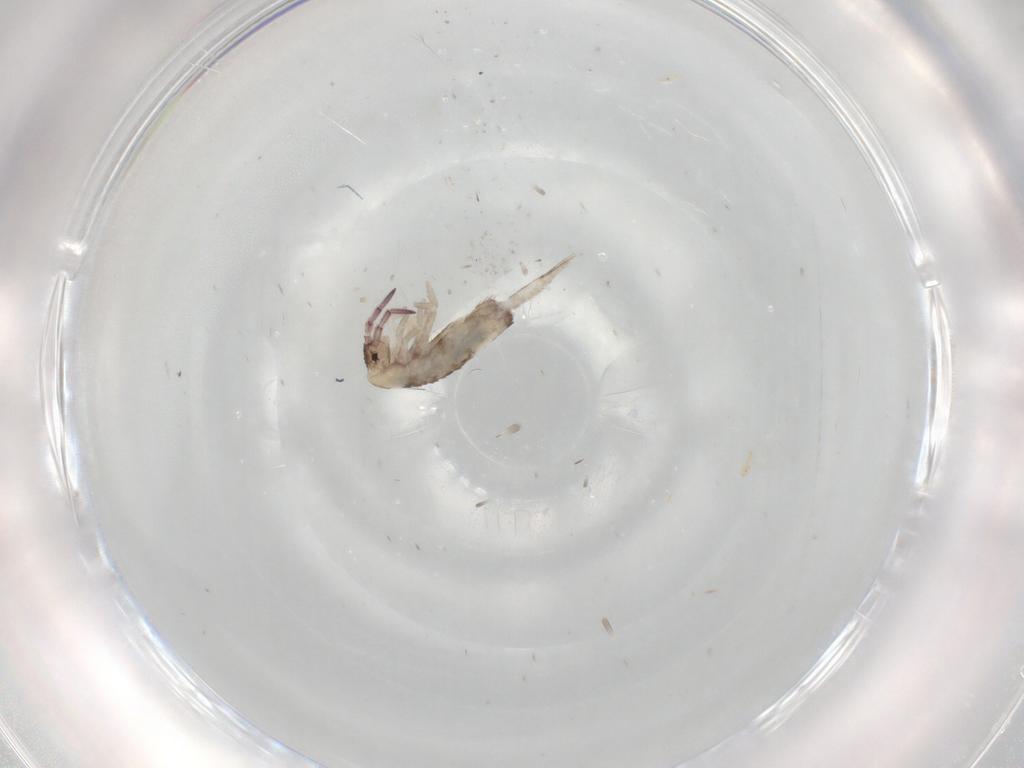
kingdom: Animalia
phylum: Arthropoda
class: Collembola
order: Entomobryomorpha
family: Entomobryidae
